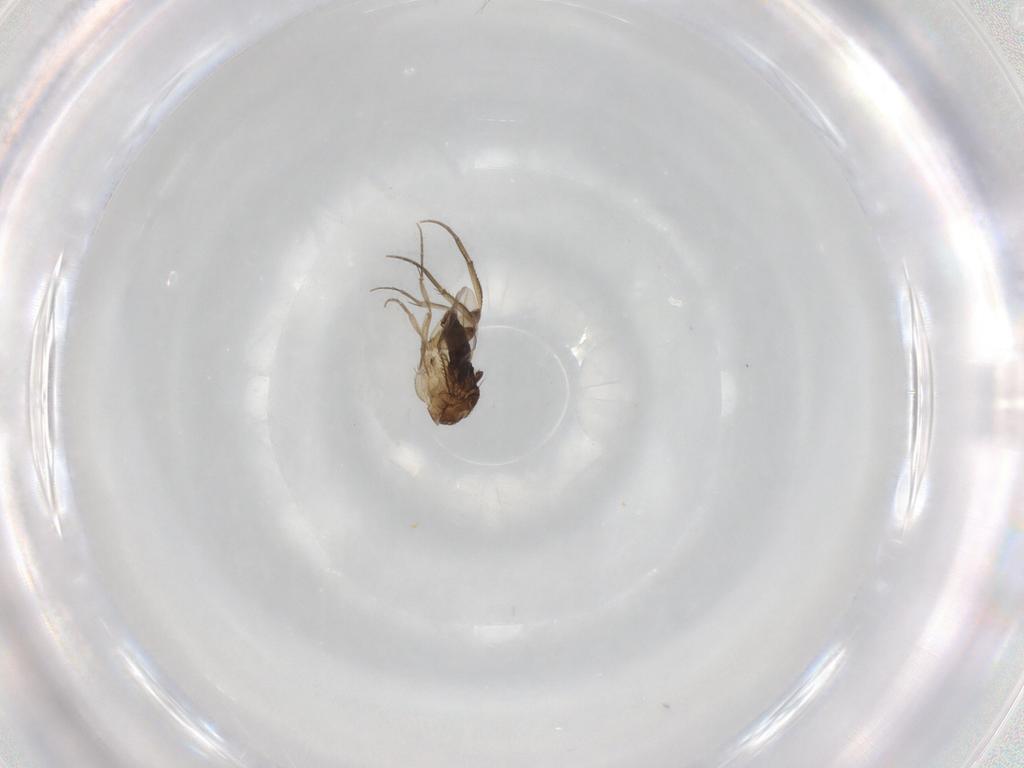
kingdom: Animalia
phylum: Arthropoda
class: Insecta
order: Diptera
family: Phoridae
